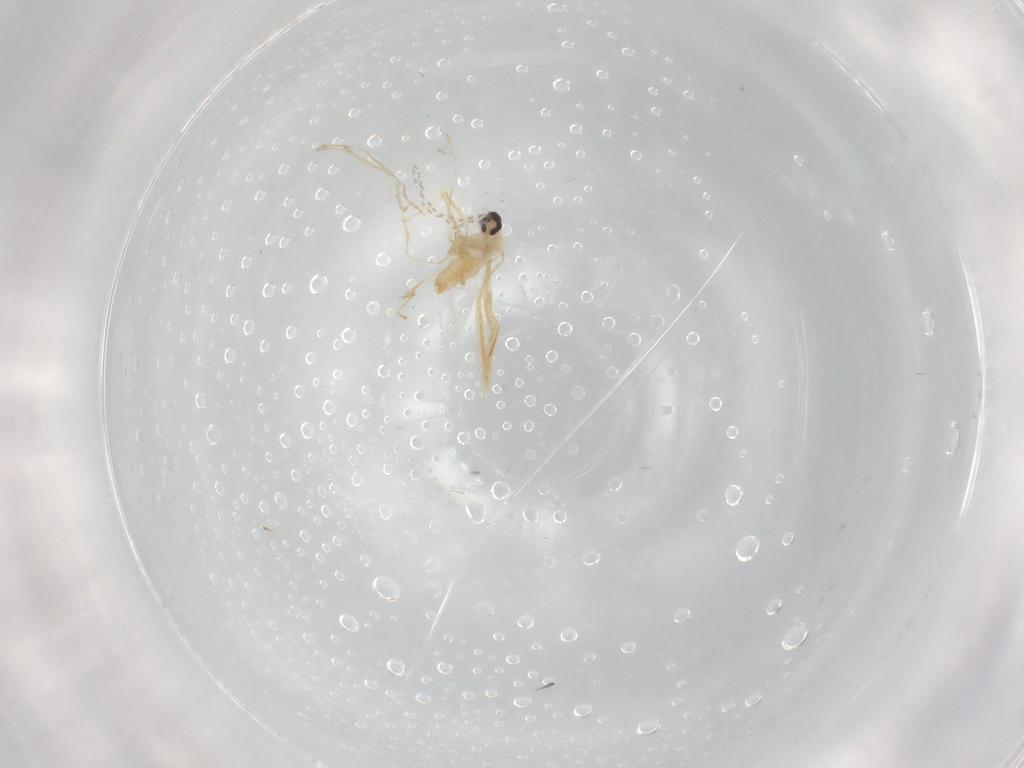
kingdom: Animalia
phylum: Arthropoda
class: Insecta
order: Diptera
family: Cecidomyiidae
